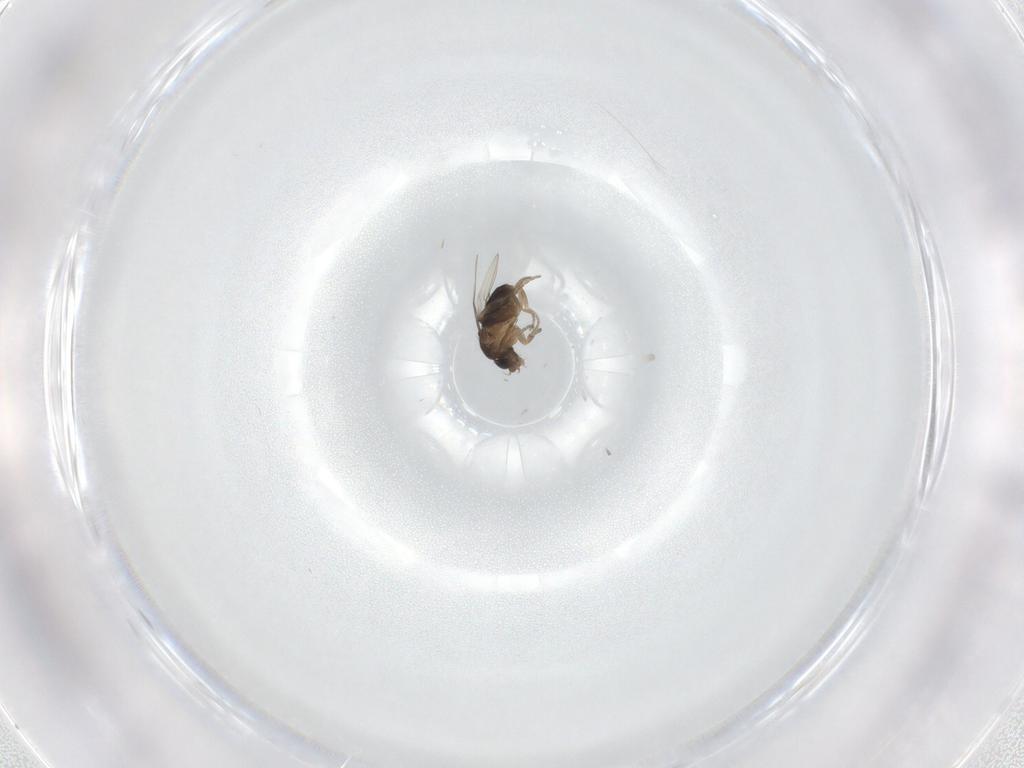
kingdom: Animalia
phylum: Arthropoda
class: Insecta
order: Diptera
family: Phoridae
